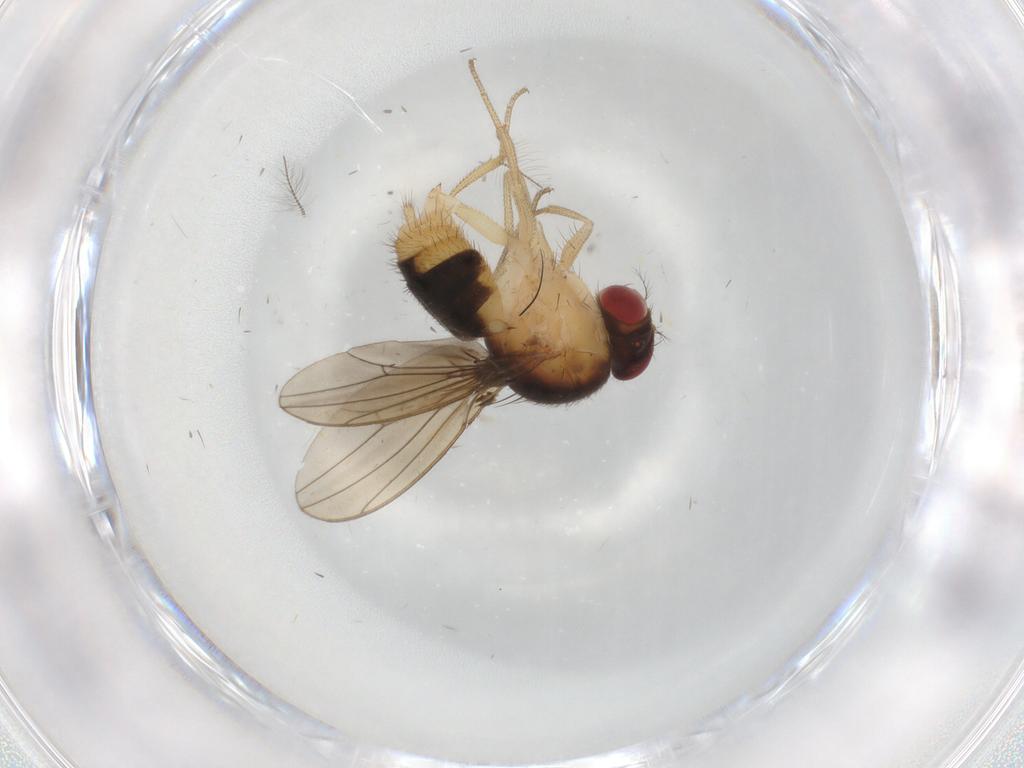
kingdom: Animalia
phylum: Arthropoda
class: Insecta
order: Diptera
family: Drosophilidae
